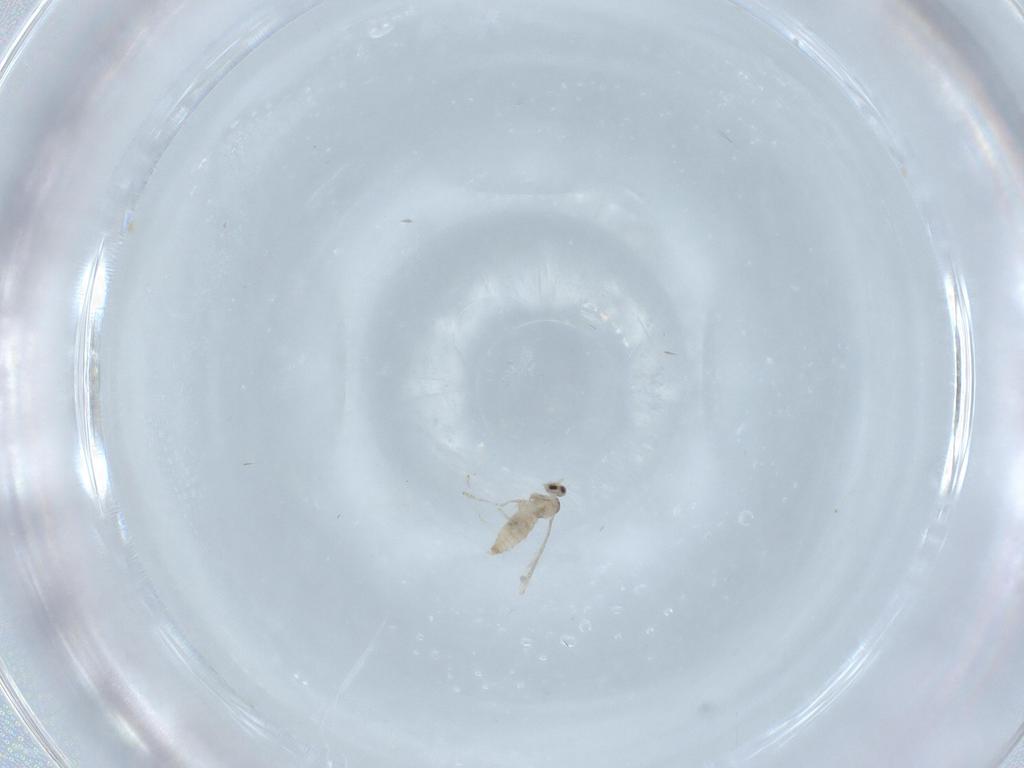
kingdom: Animalia
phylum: Arthropoda
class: Insecta
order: Diptera
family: Cecidomyiidae
